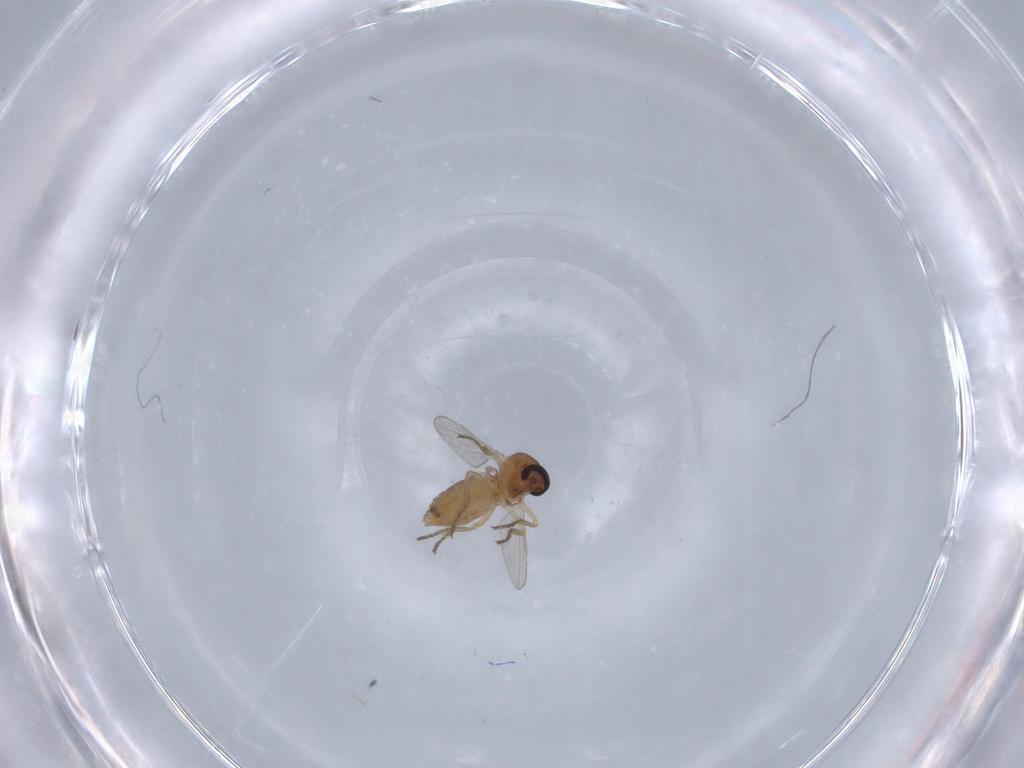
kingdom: Animalia
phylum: Arthropoda
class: Insecta
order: Diptera
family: Ceratopogonidae
